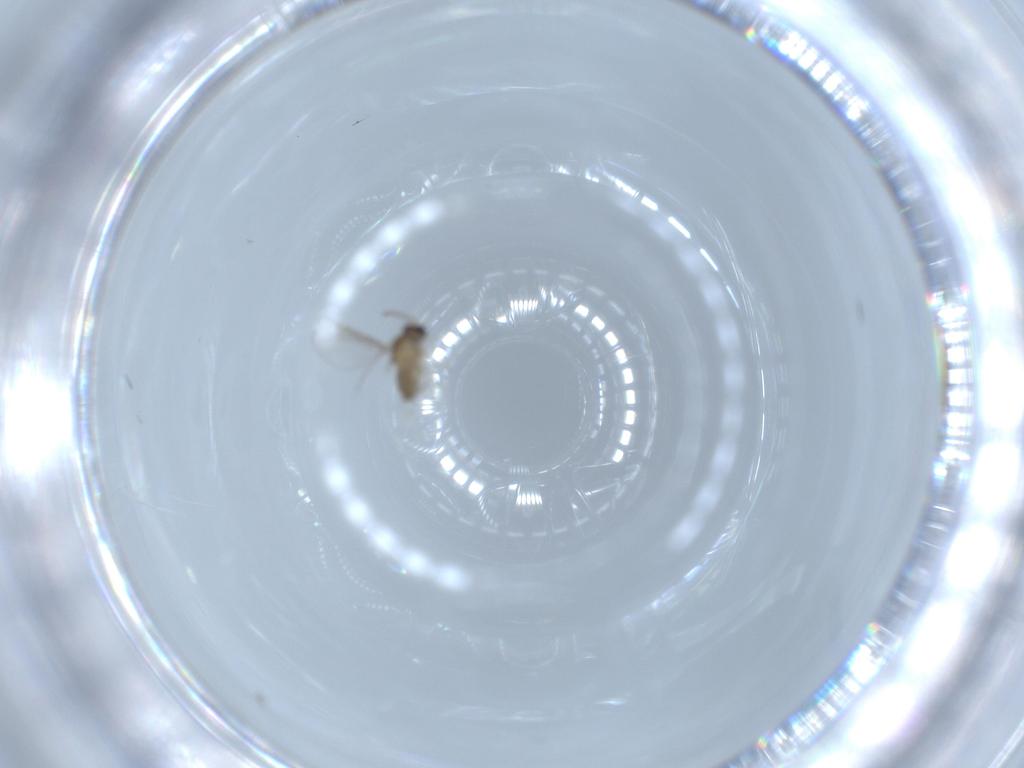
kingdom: Animalia
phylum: Arthropoda
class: Insecta
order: Diptera
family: Cecidomyiidae
